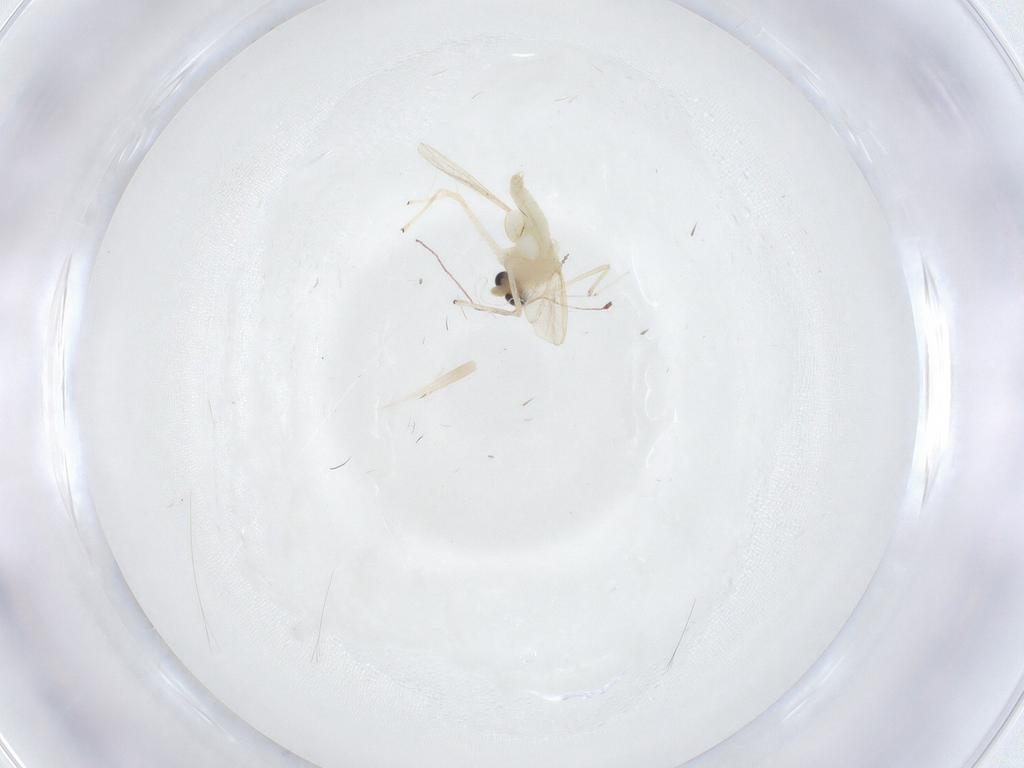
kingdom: Animalia
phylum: Arthropoda
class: Insecta
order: Diptera
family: Chironomidae
